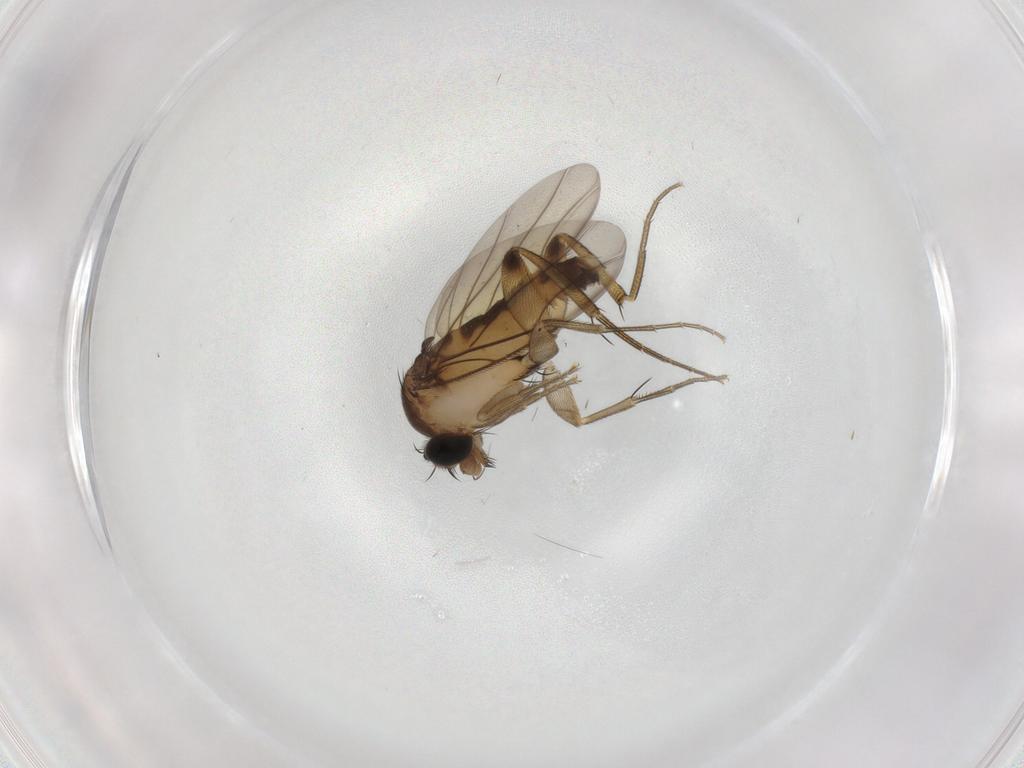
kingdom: Animalia
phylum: Arthropoda
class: Insecta
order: Diptera
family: Phoridae
